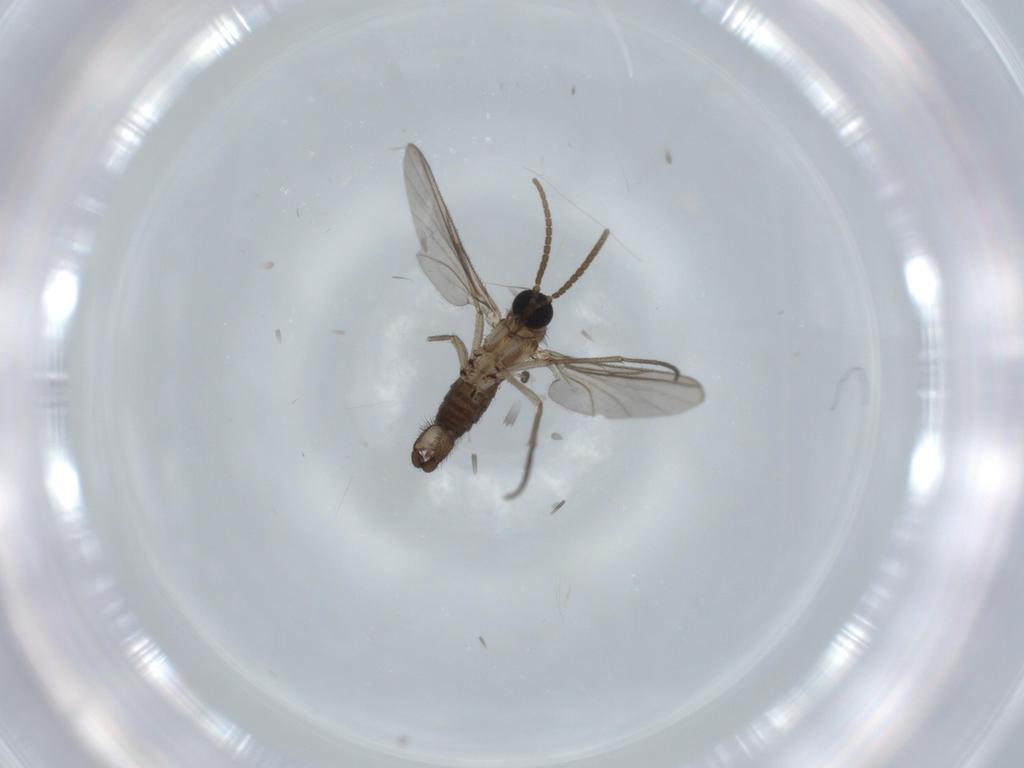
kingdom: Animalia
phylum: Arthropoda
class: Insecta
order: Diptera
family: Sciaridae
